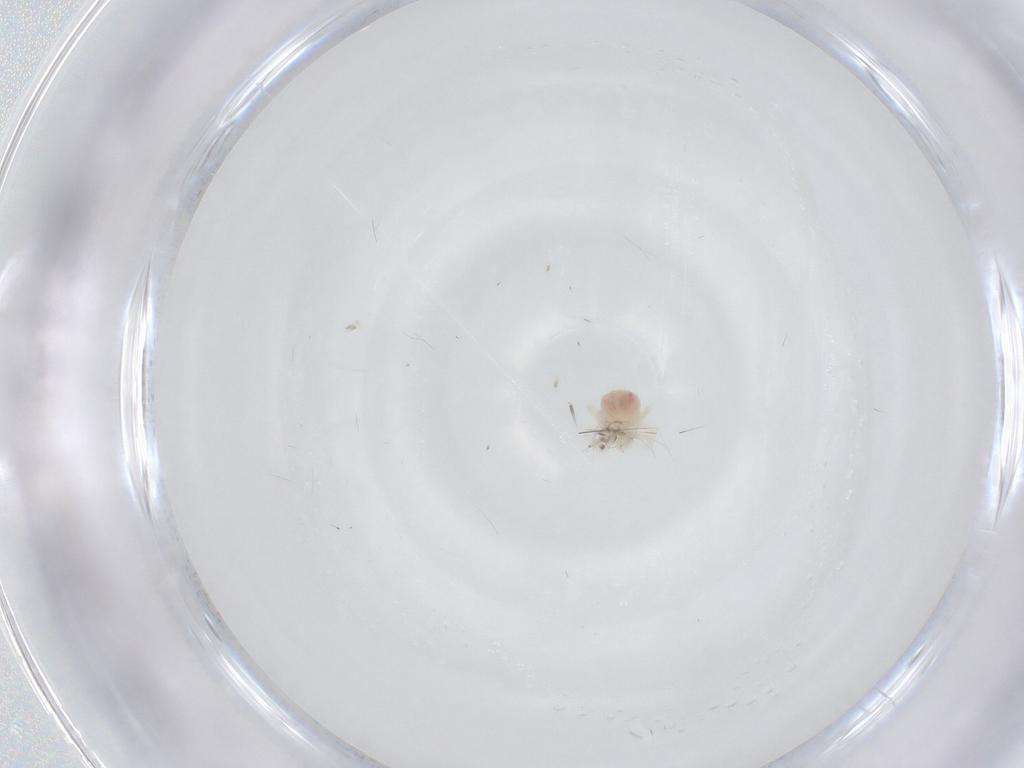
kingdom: Animalia
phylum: Arthropoda
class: Arachnida
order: Trombidiformes
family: Anystidae
